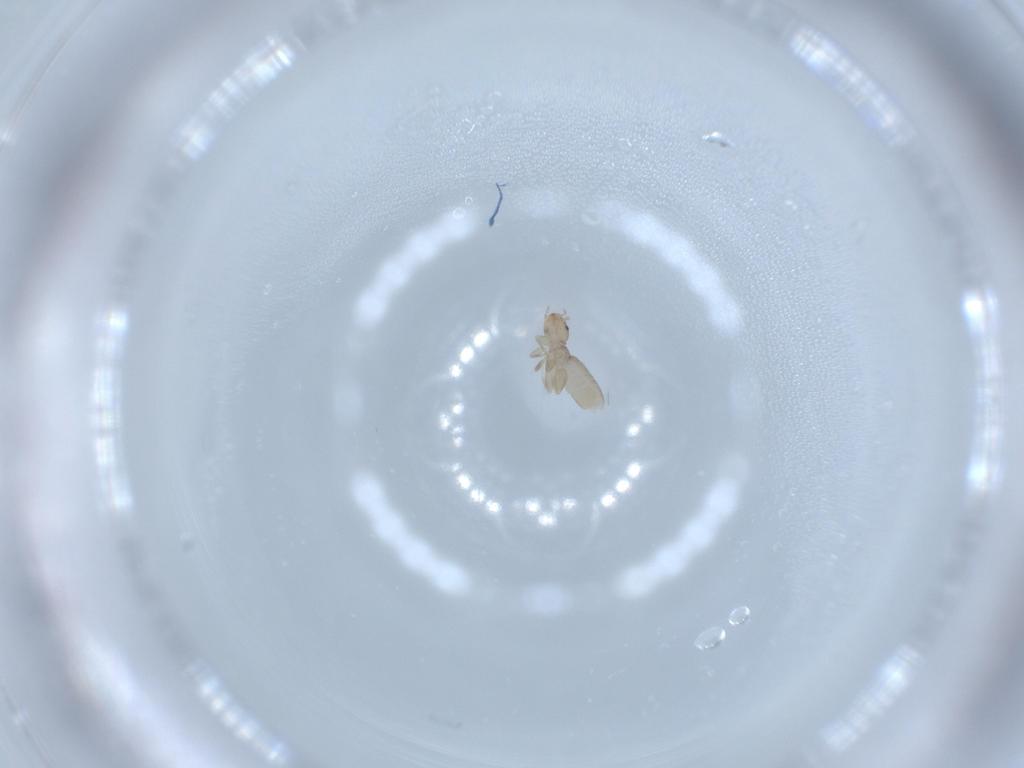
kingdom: Animalia
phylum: Arthropoda
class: Insecta
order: Psocodea
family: Liposcelididae
